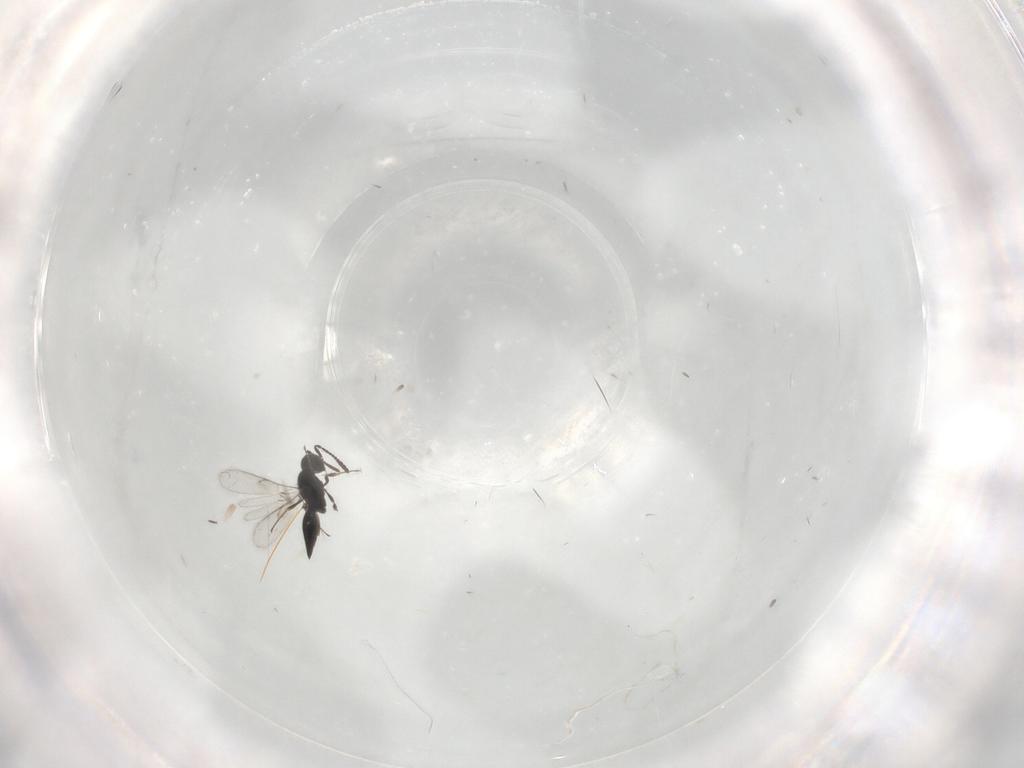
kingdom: Animalia
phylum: Arthropoda
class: Insecta
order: Hymenoptera
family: Scelionidae
